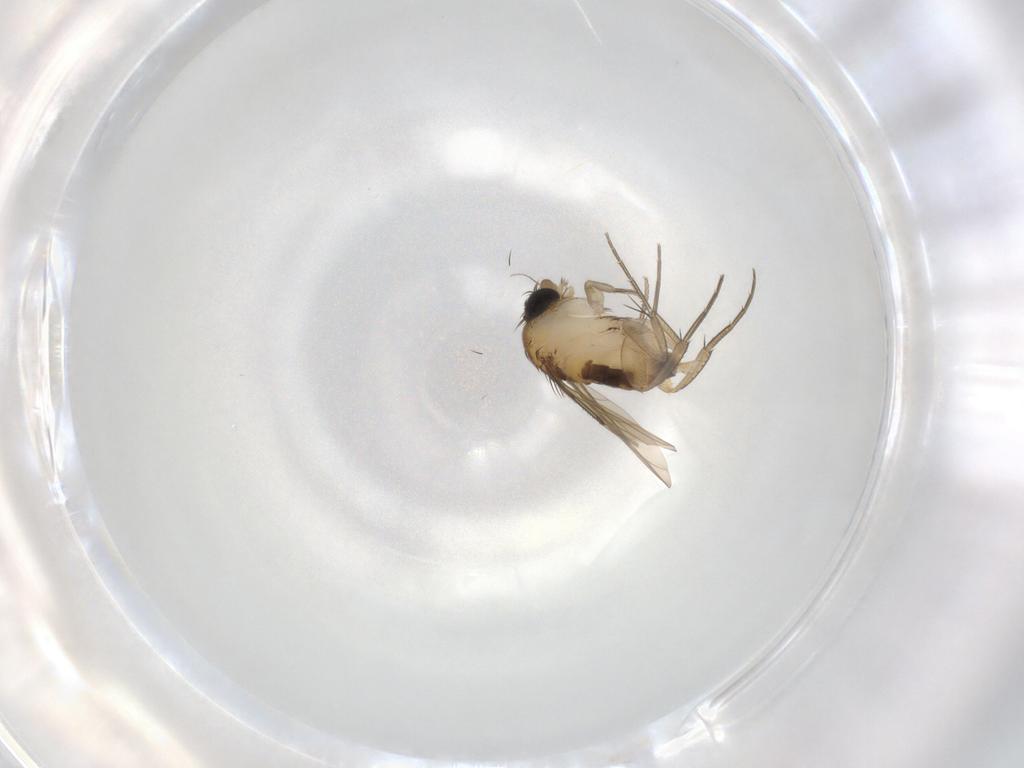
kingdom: Animalia
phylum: Arthropoda
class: Insecta
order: Diptera
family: Phoridae
